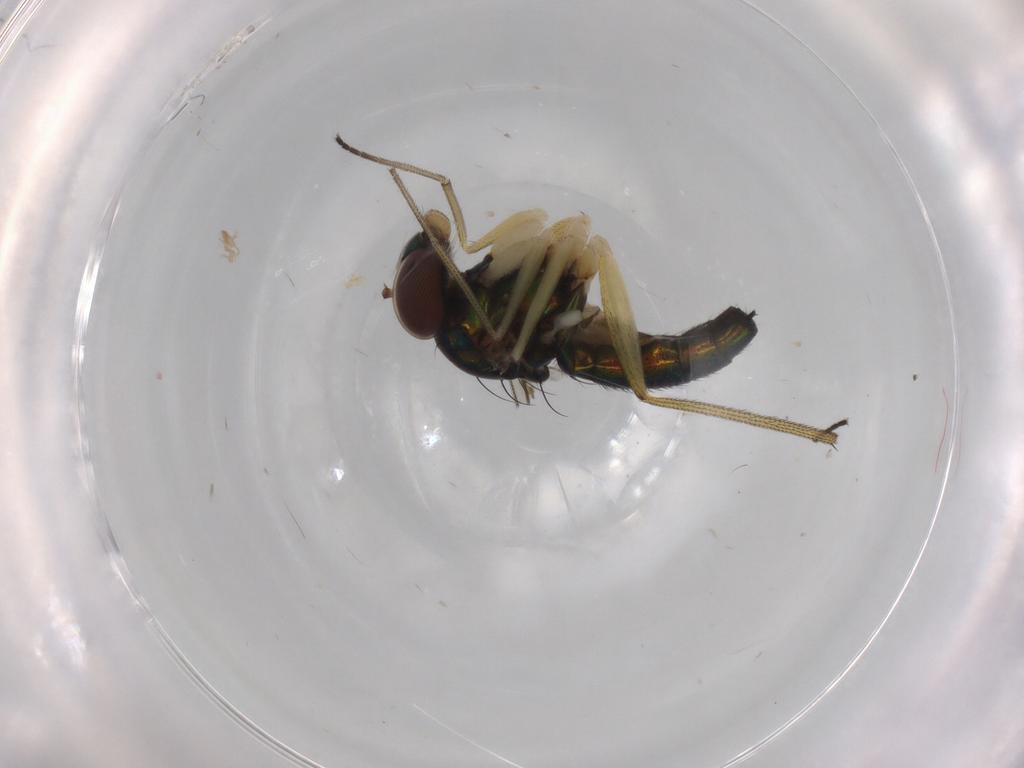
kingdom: Animalia
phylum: Arthropoda
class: Insecta
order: Diptera
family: Dolichopodidae
